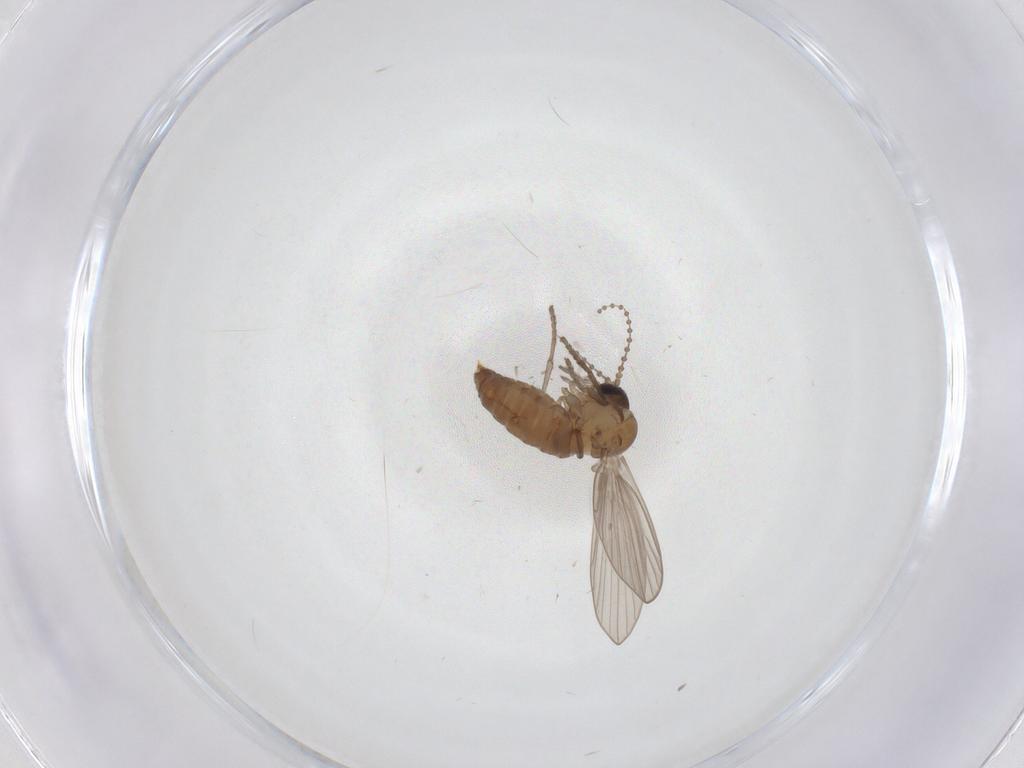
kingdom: Animalia
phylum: Arthropoda
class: Insecta
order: Diptera
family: Psychodidae
